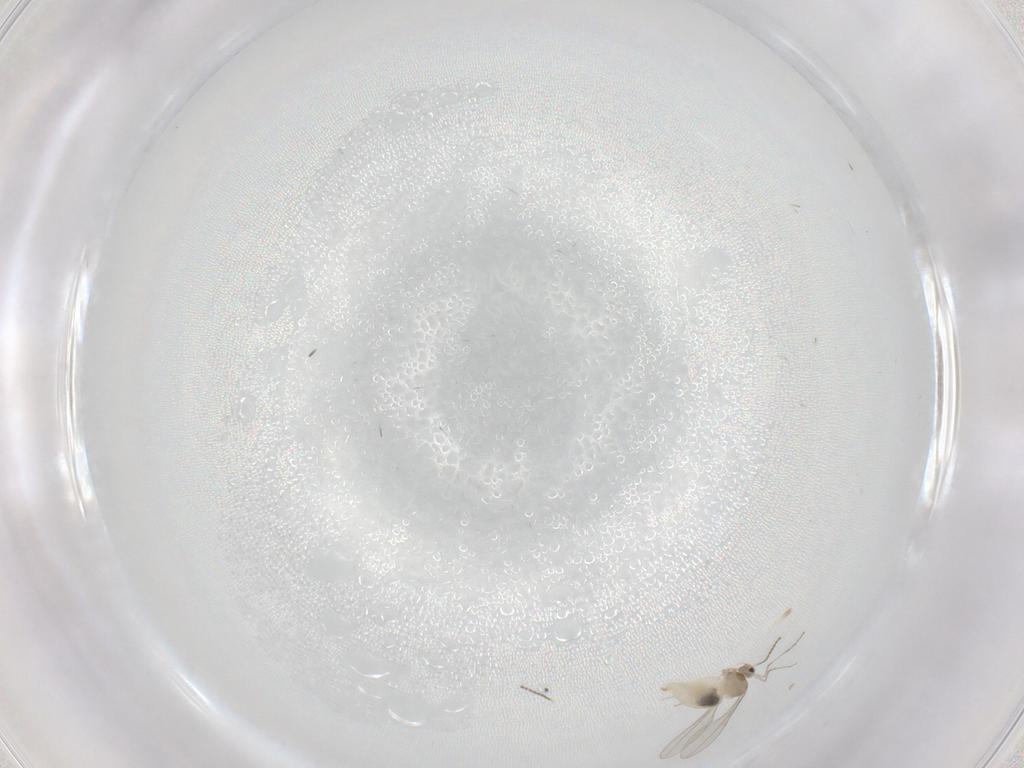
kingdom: Animalia
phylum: Arthropoda
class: Insecta
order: Diptera
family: Cecidomyiidae
